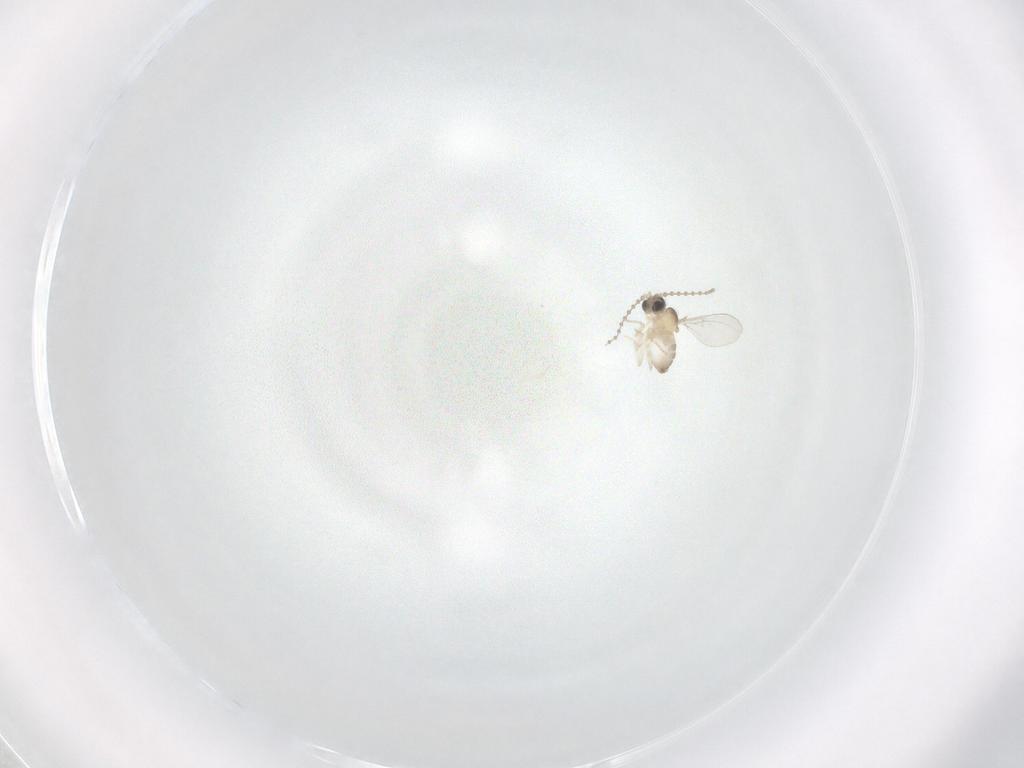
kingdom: Animalia
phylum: Arthropoda
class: Insecta
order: Diptera
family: Cecidomyiidae
